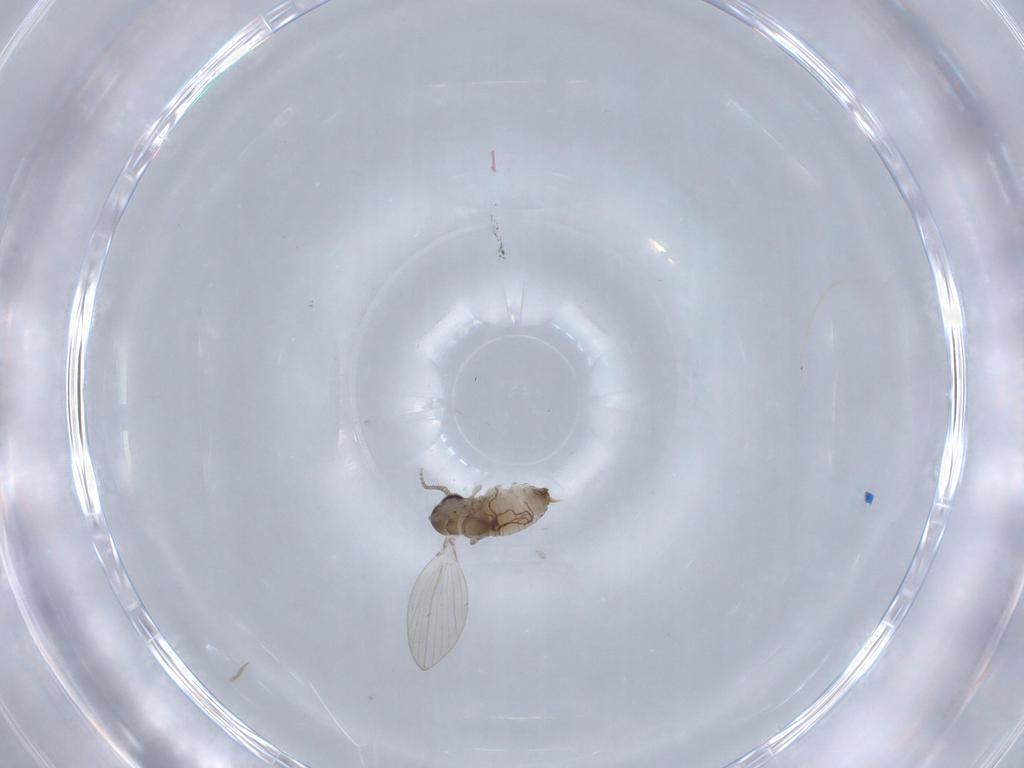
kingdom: Animalia
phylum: Arthropoda
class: Insecta
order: Diptera
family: Psychodidae
